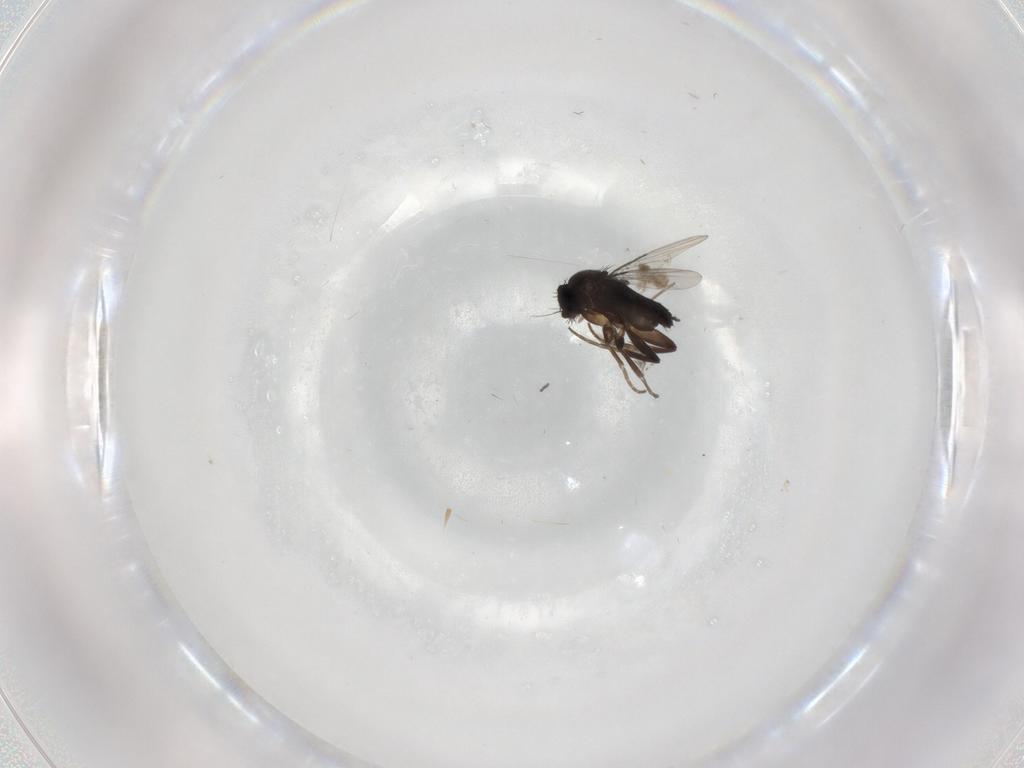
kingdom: Animalia
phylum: Arthropoda
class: Insecta
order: Diptera
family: Phoridae
